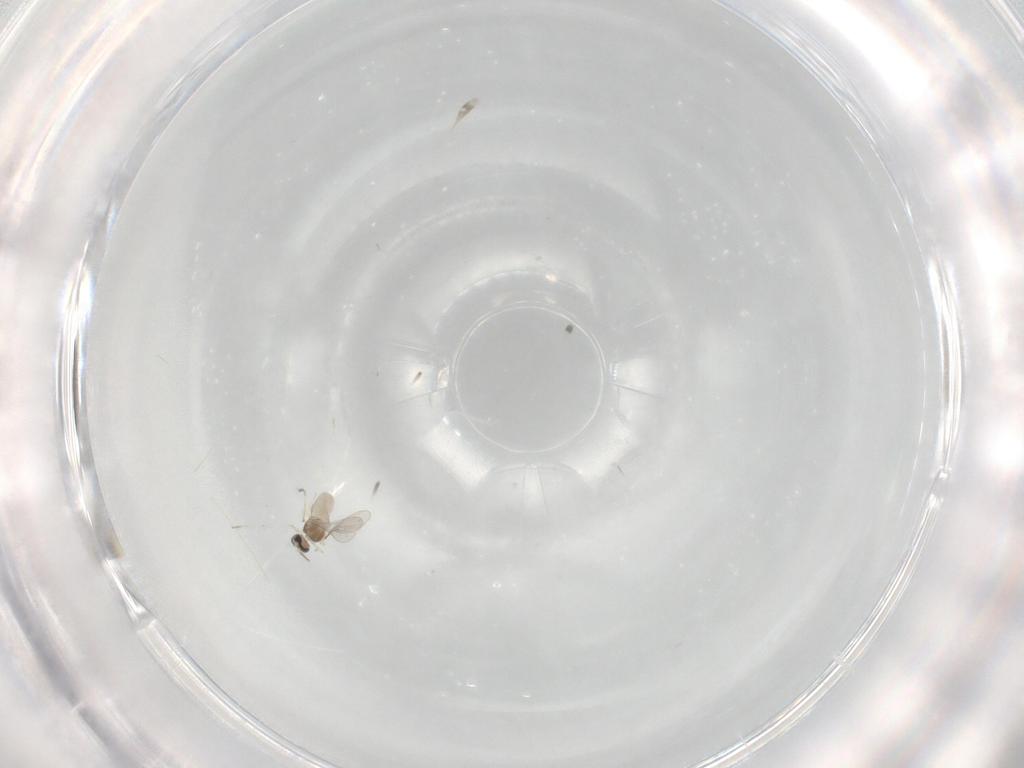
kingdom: Animalia
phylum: Arthropoda
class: Insecta
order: Diptera
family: Cecidomyiidae
